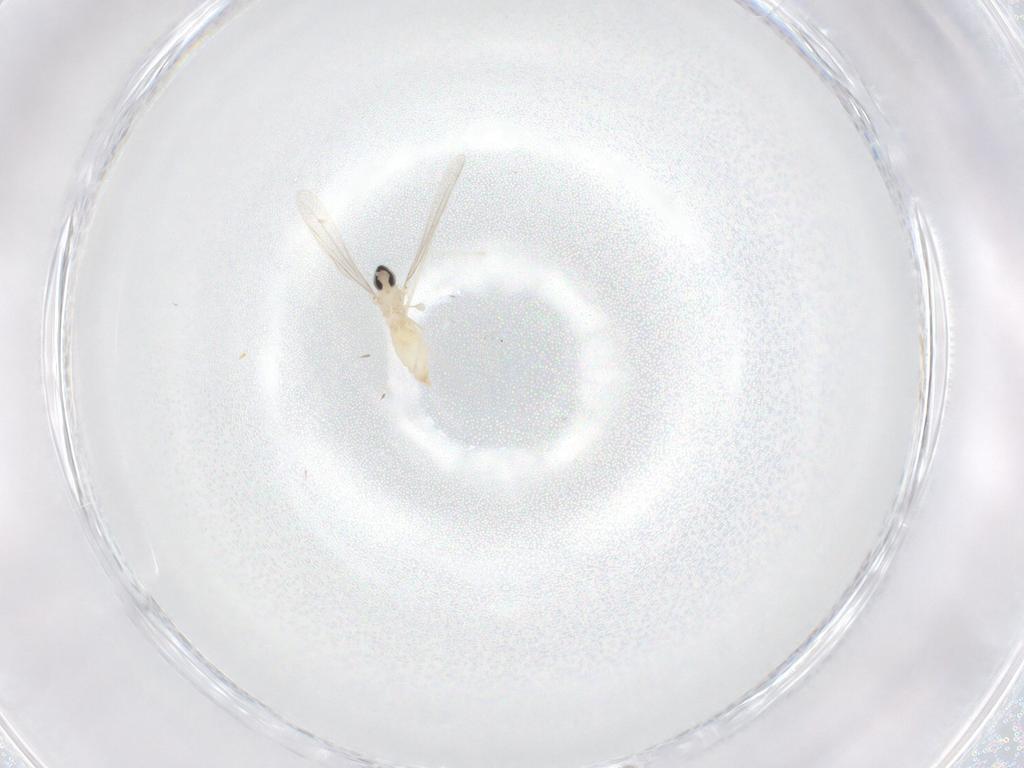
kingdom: Animalia
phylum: Arthropoda
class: Insecta
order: Diptera
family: Cecidomyiidae
